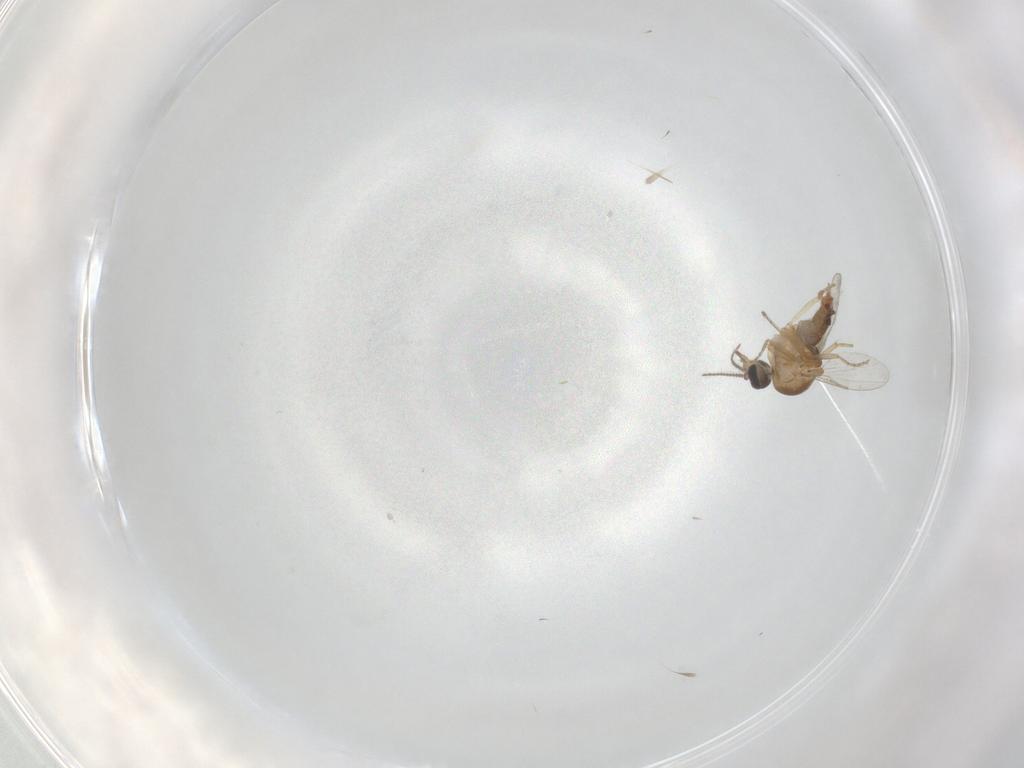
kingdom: Animalia
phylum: Arthropoda
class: Insecta
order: Diptera
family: Ceratopogonidae
